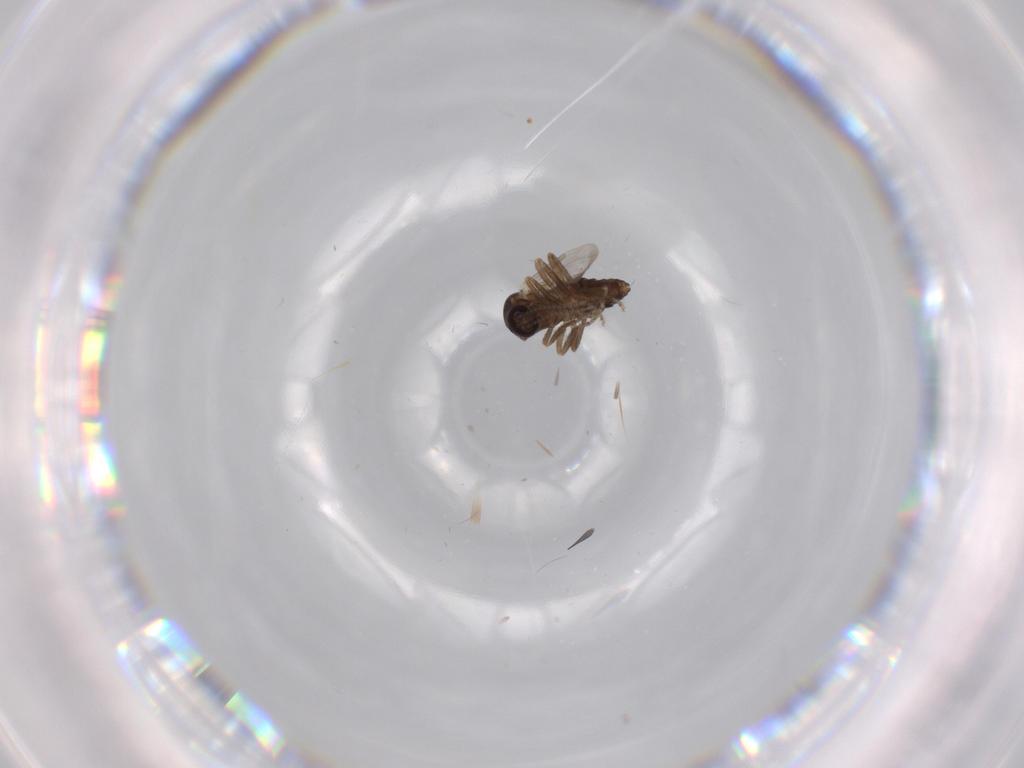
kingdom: Animalia
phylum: Arthropoda
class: Insecta
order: Diptera
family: Ceratopogonidae
